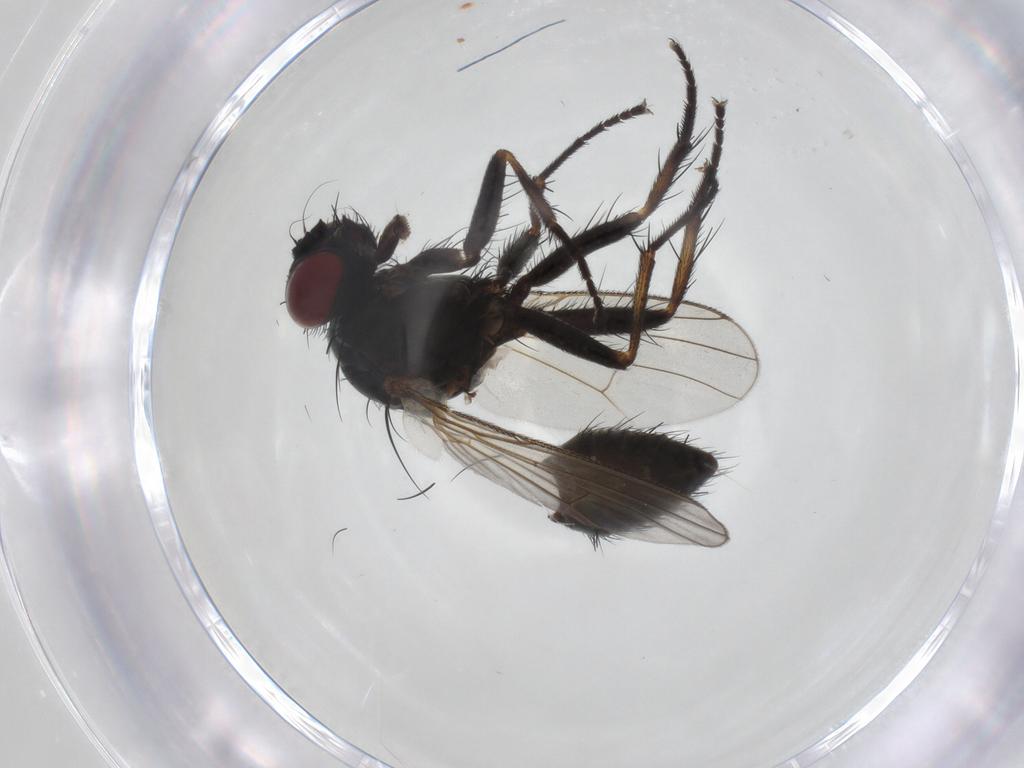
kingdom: Animalia
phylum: Arthropoda
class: Insecta
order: Diptera
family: Muscidae
